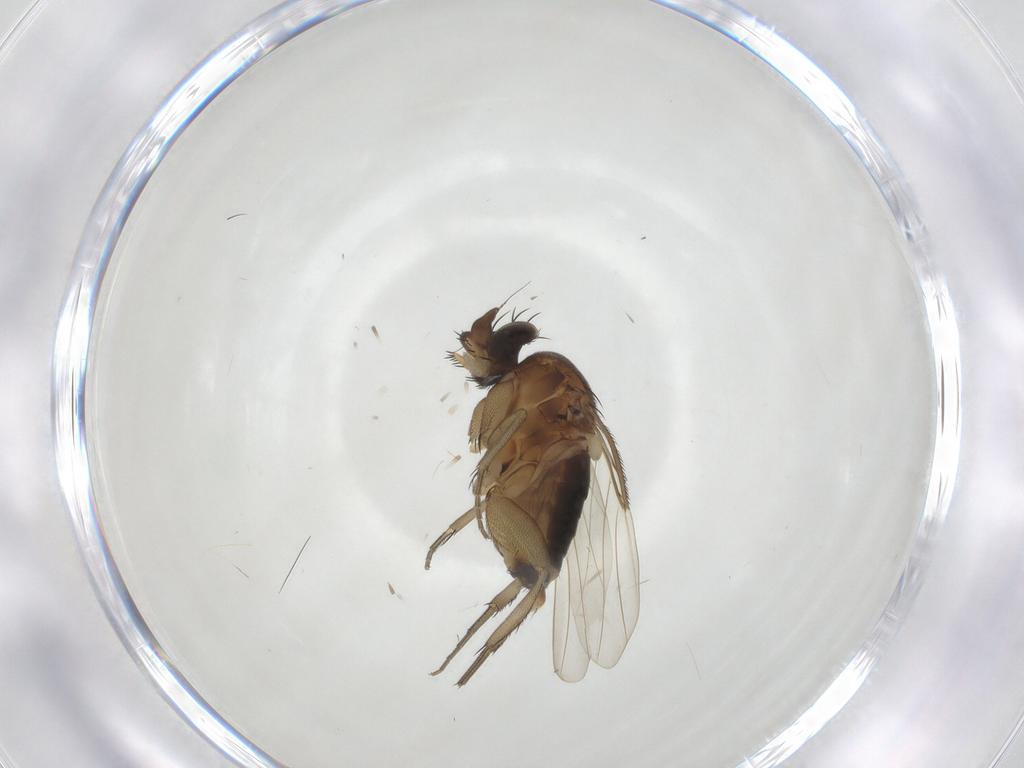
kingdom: Animalia
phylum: Arthropoda
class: Insecta
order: Diptera
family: Phoridae
